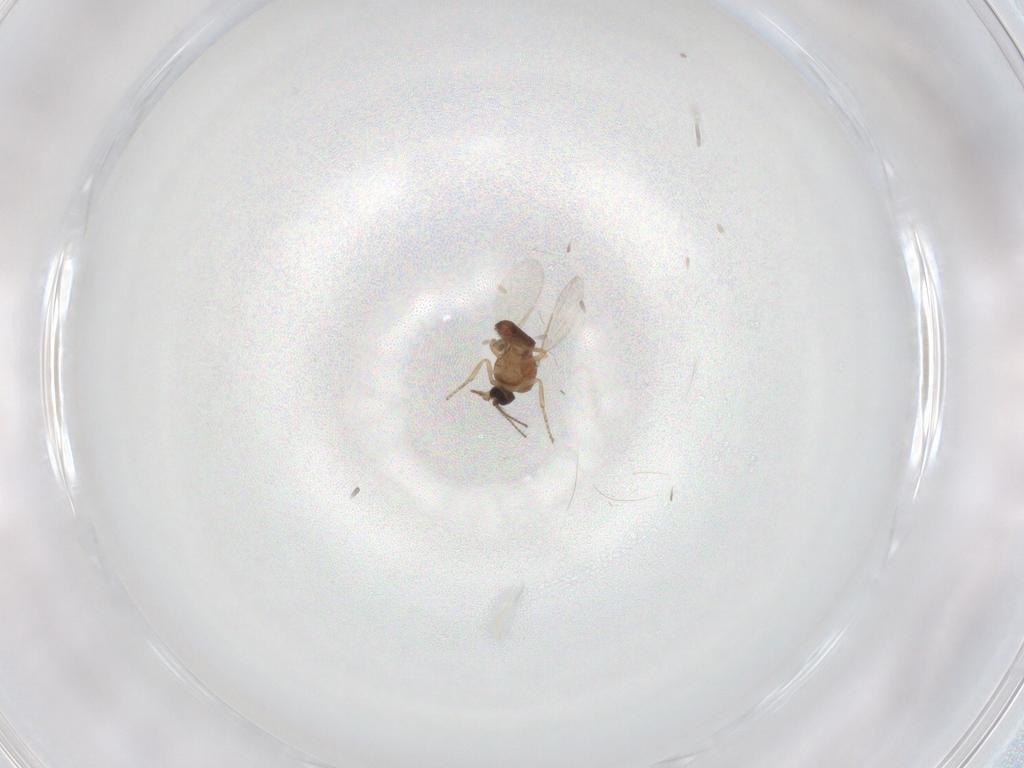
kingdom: Animalia
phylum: Arthropoda
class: Insecta
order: Diptera
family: Ceratopogonidae
